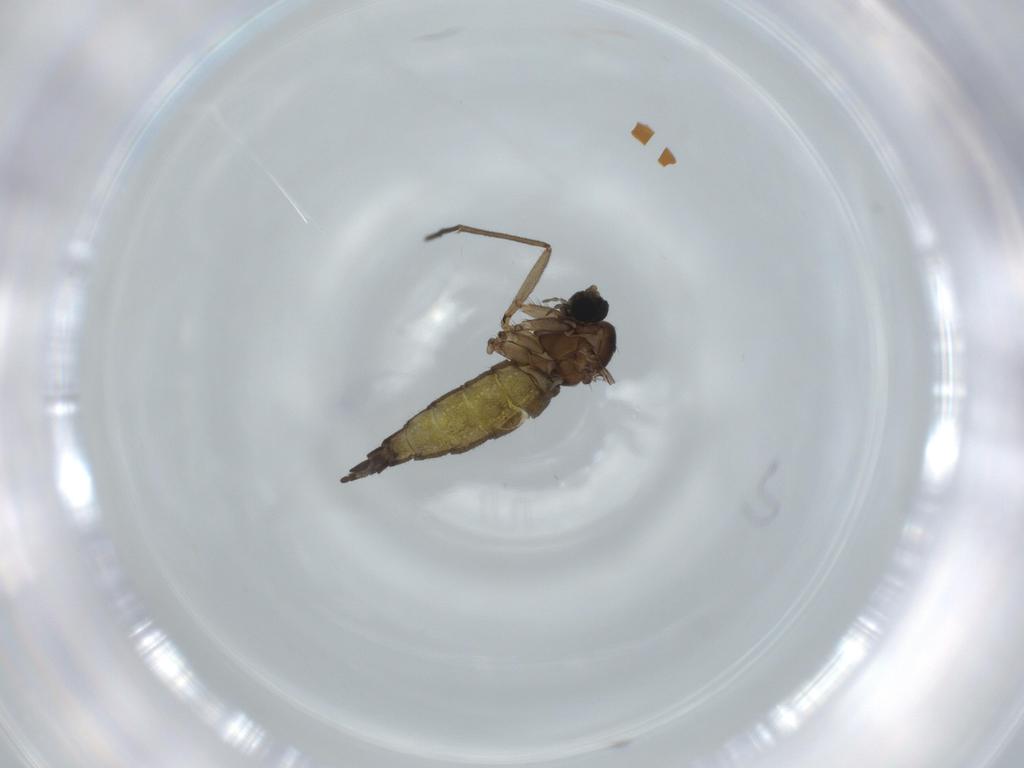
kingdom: Animalia
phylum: Arthropoda
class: Insecta
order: Diptera
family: Sciaridae
